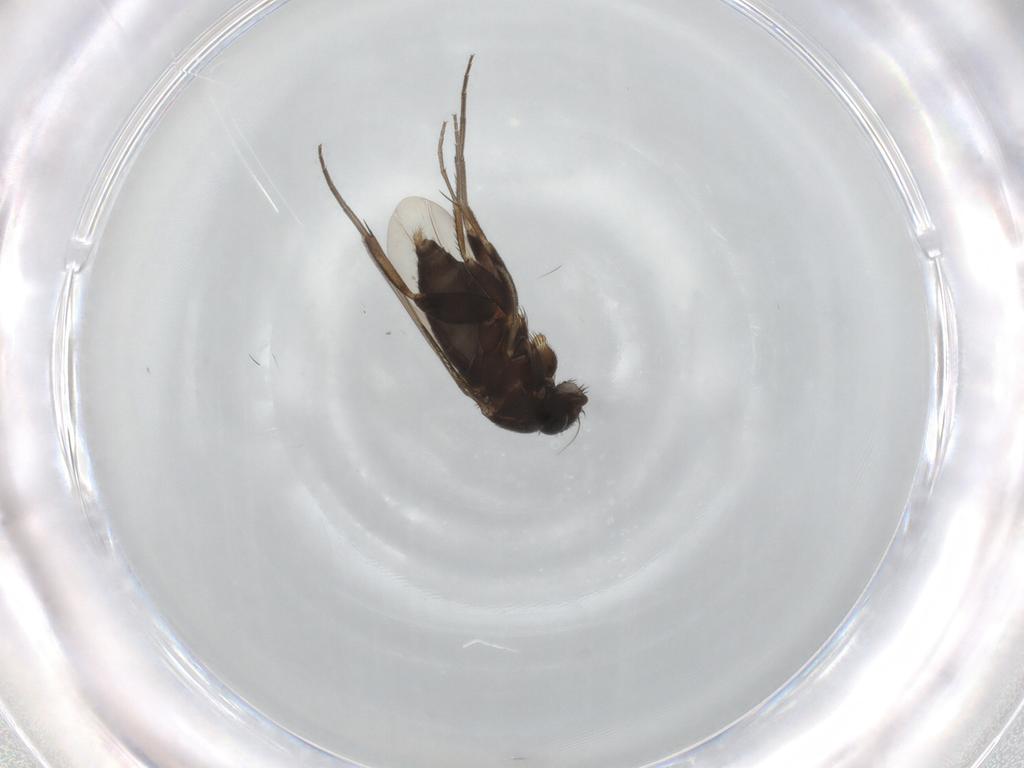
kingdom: Animalia
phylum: Arthropoda
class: Insecta
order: Diptera
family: Phoridae
